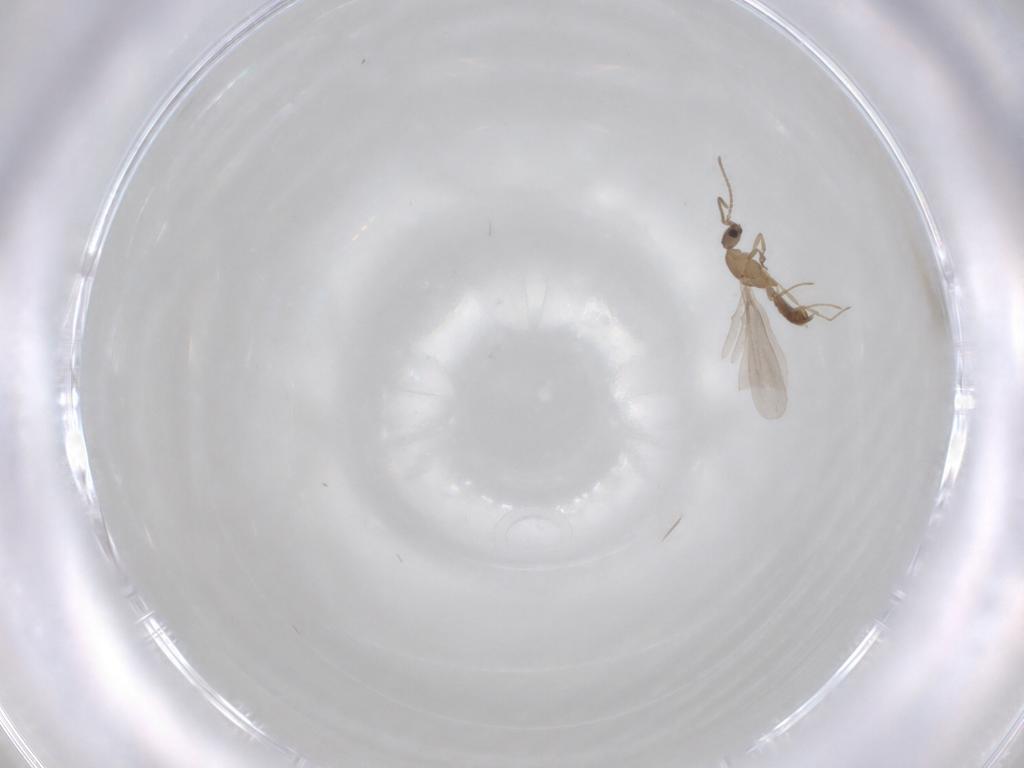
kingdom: Animalia
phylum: Arthropoda
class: Insecta
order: Hymenoptera
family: Formicidae
